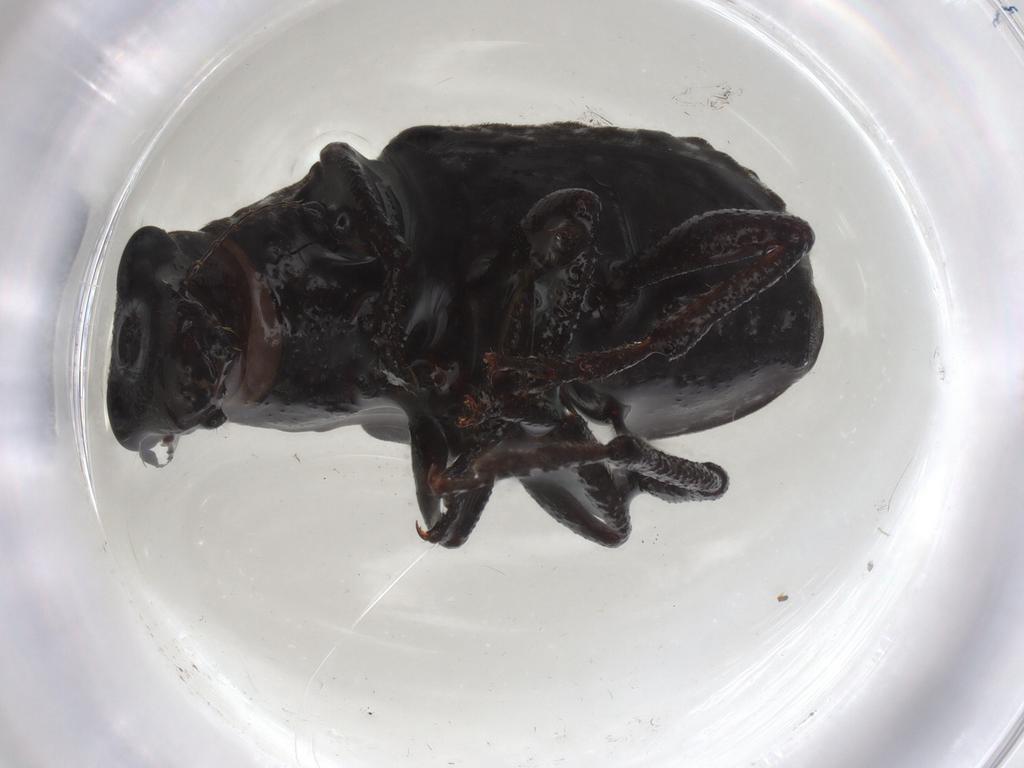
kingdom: Animalia
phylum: Arthropoda
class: Insecta
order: Coleoptera
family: Anthribidae
